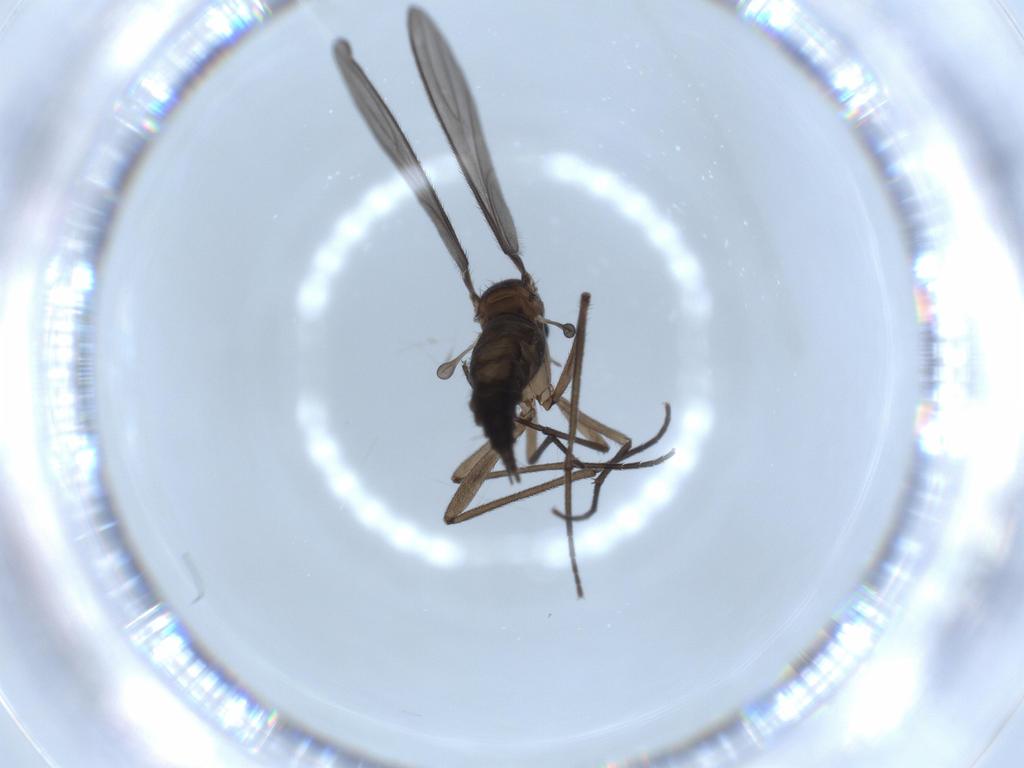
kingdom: Animalia
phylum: Arthropoda
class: Insecta
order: Diptera
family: Sciaridae
